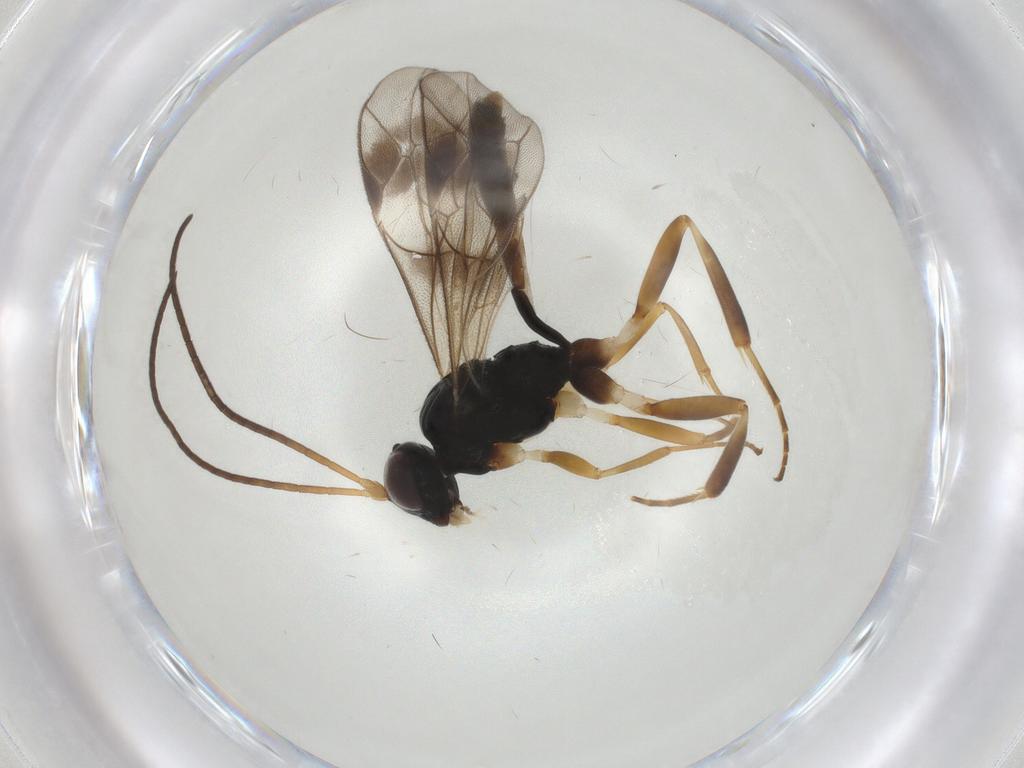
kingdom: Animalia
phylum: Arthropoda
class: Insecta
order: Hymenoptera
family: Ichneumonidae
